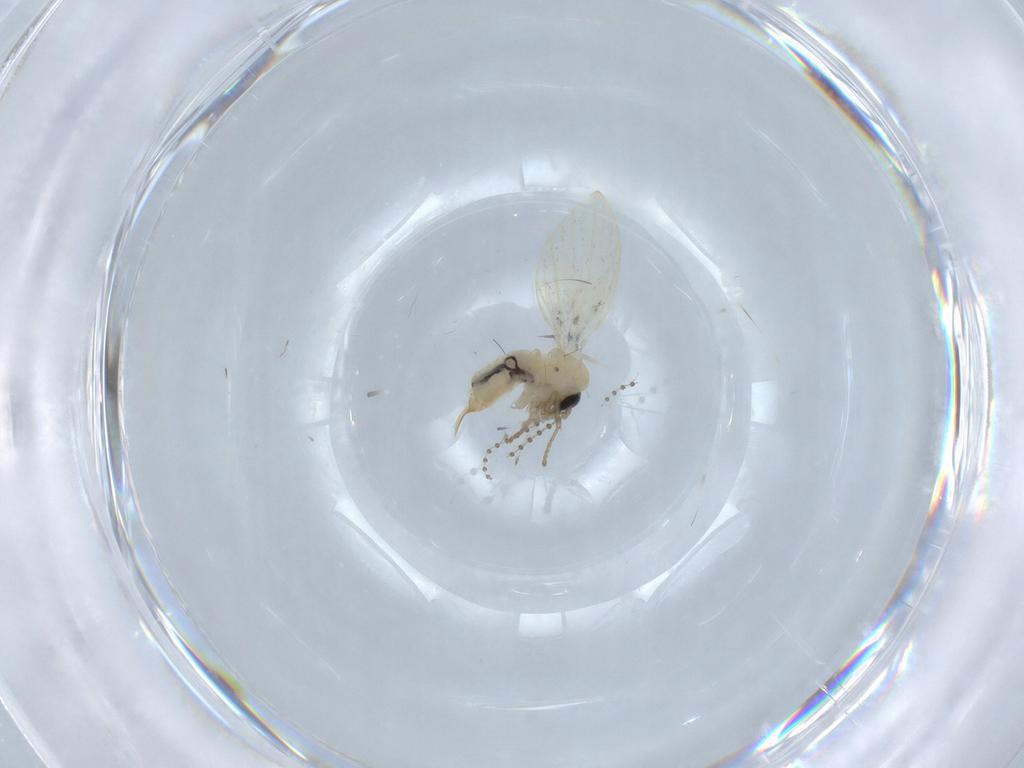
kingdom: Animalia
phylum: Arthropoda
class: Insecta
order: Diptera
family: Psychodidae
